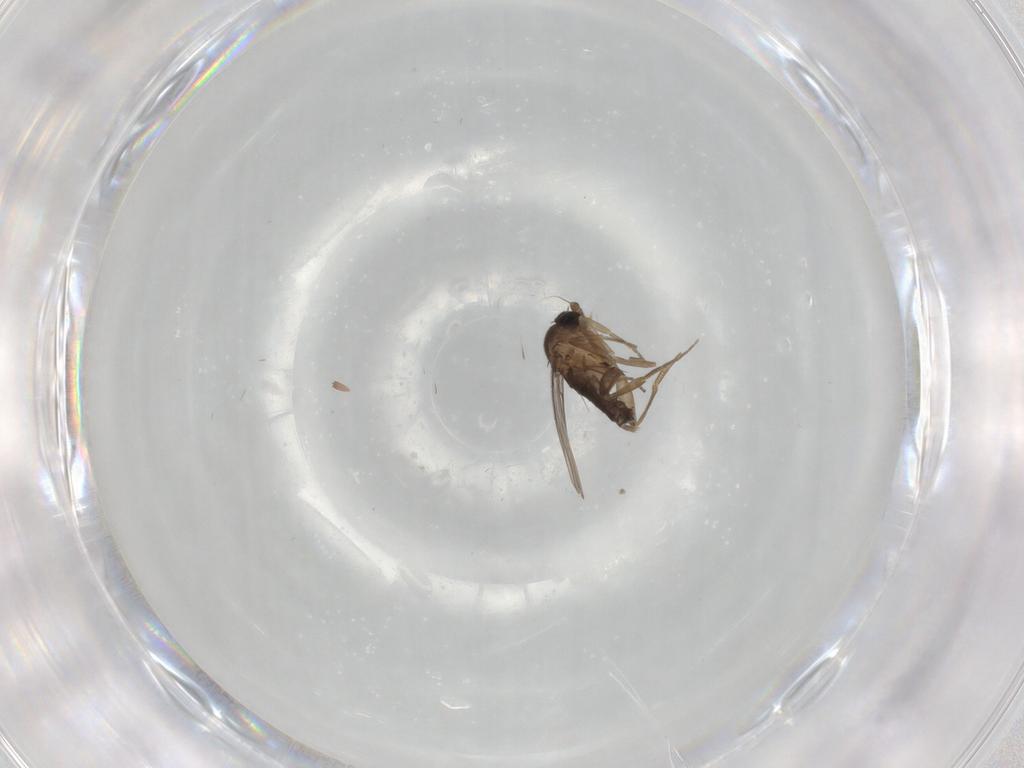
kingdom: Animalia
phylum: Arthropoda
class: Insecta
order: Diptera
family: Phoridae
